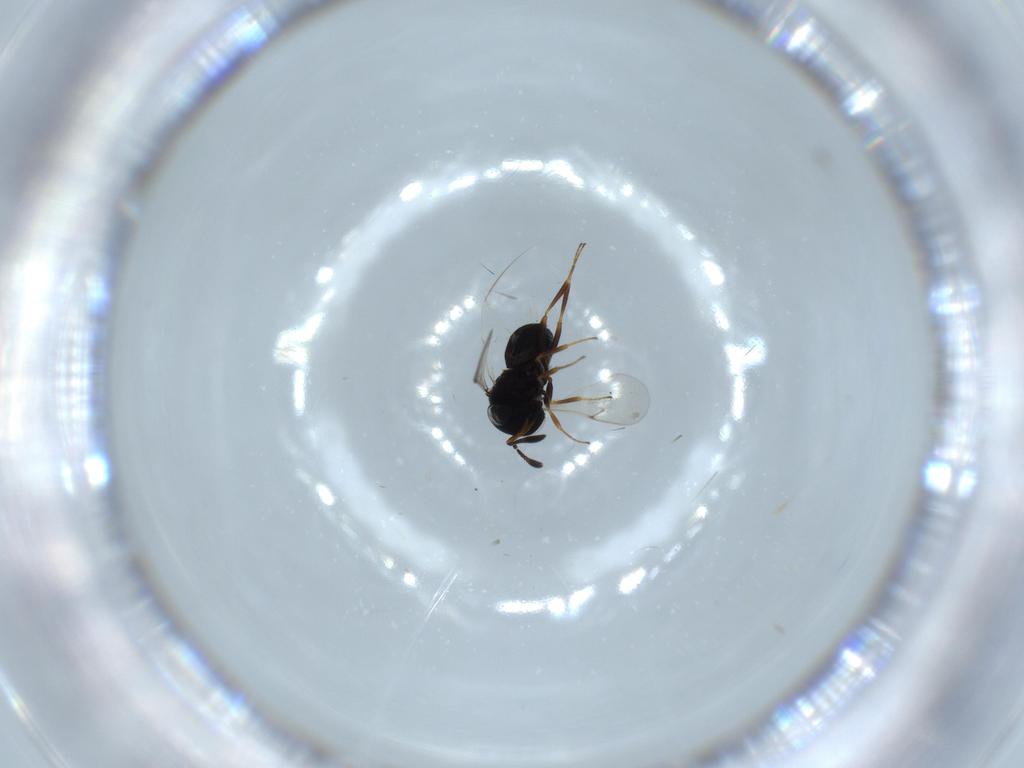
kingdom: Animalia
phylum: Arthropoda
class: Insecta
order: Hymenoptera
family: Scelionidae
